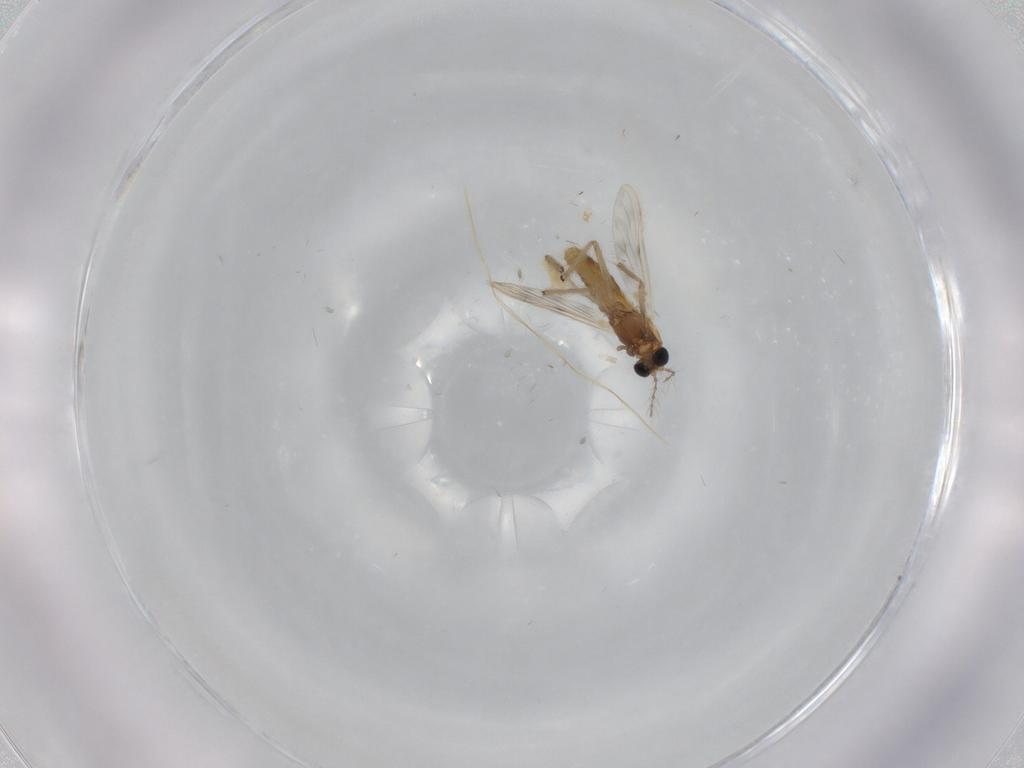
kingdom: Animalia
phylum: Arthropoda
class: Insecta
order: Diptera
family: Chironomidae
